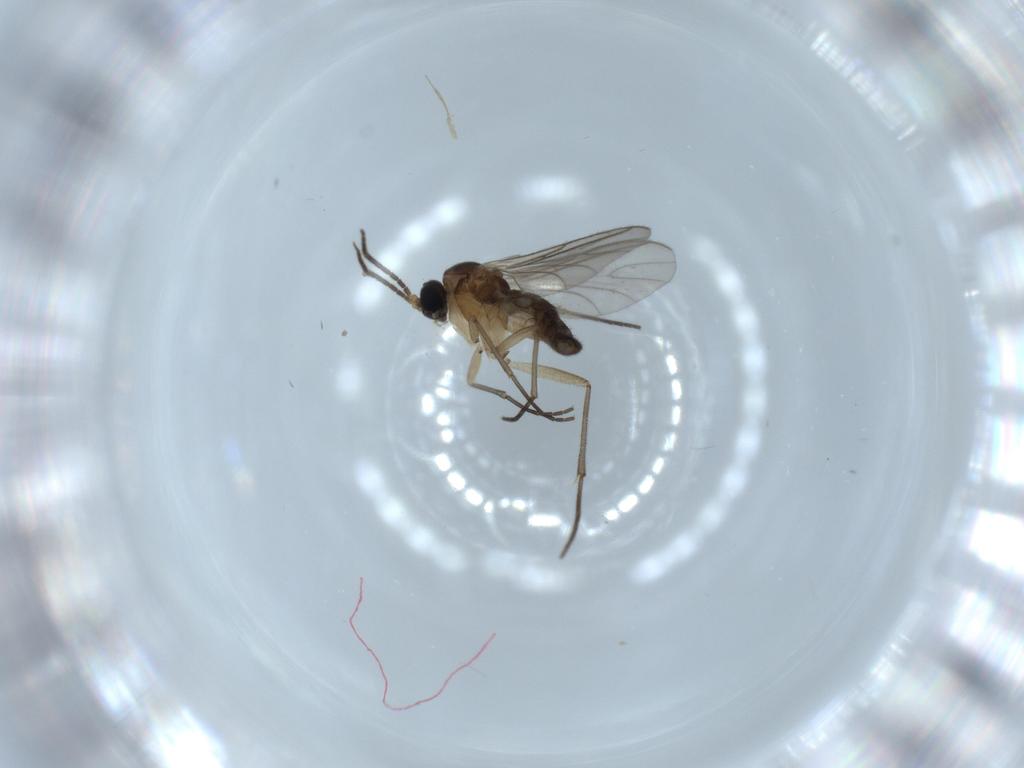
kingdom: Animalia
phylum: Arthropoda
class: Insecta
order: Diptera
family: Sciaridae
